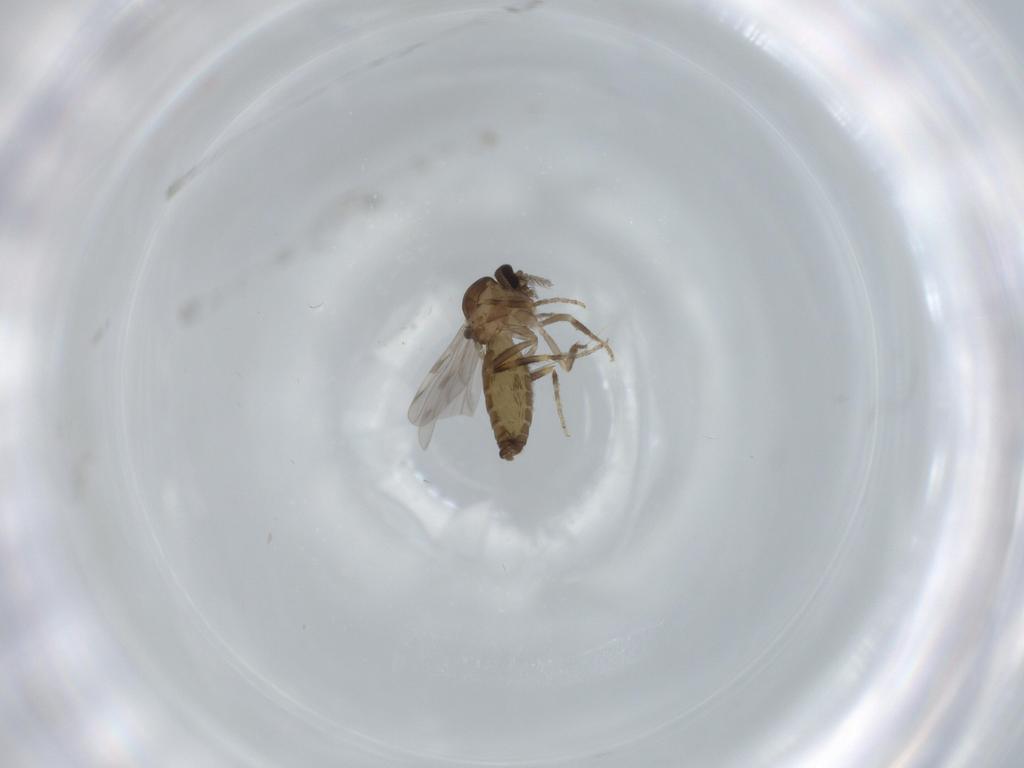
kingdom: Animalia
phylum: Arthropoda
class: Insecta
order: Diptera
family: Ceratopogonidae
